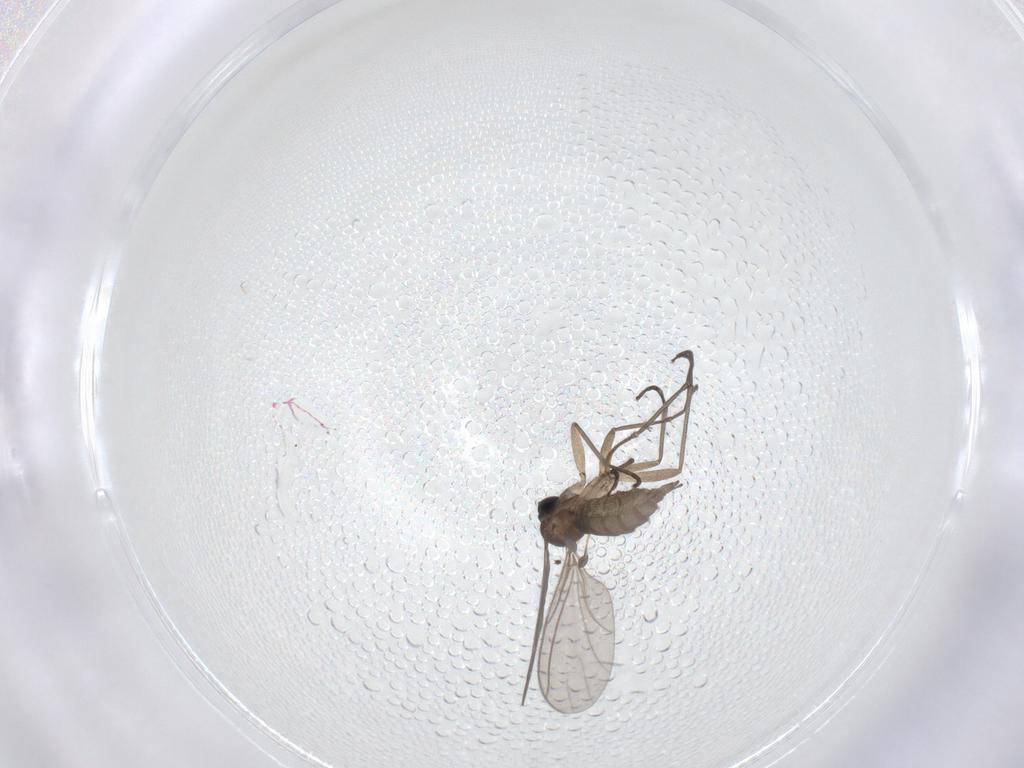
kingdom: Animalia
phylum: Arthropoda
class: Insecta
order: Diptera
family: Sciaridae
